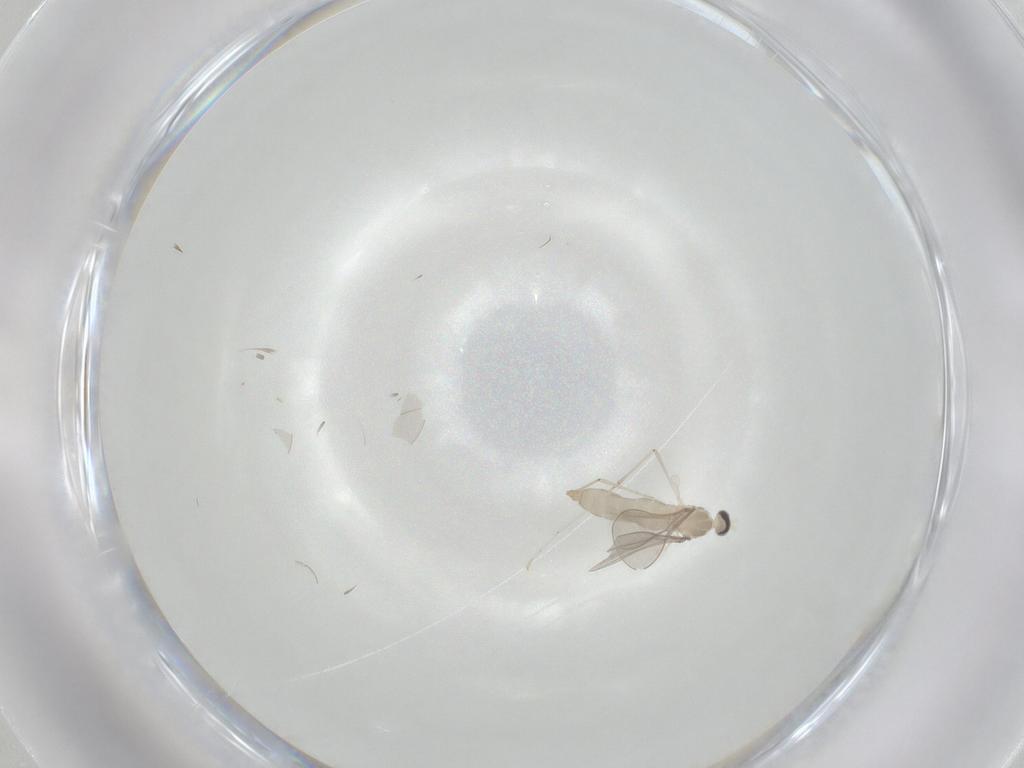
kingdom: Animalia
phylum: Arthropoda
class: Insecta
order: Diptera
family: Cecidomyiidae
